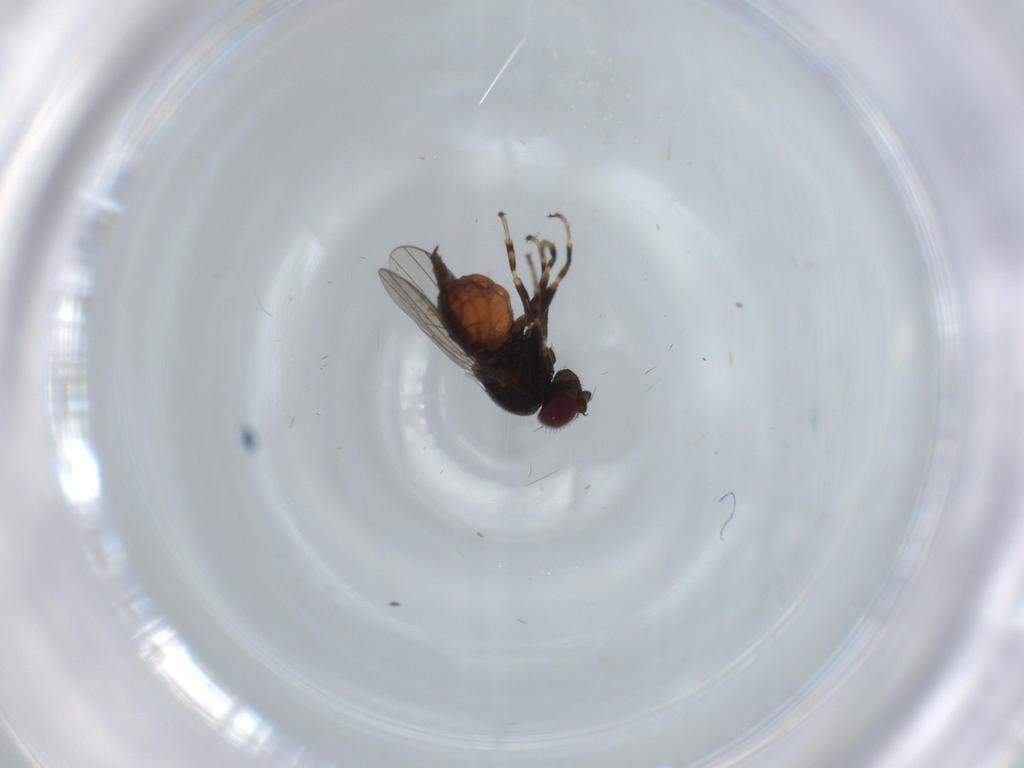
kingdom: Animalia
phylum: Arthropoda
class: Insecta
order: Diptera
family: Chloropidae
